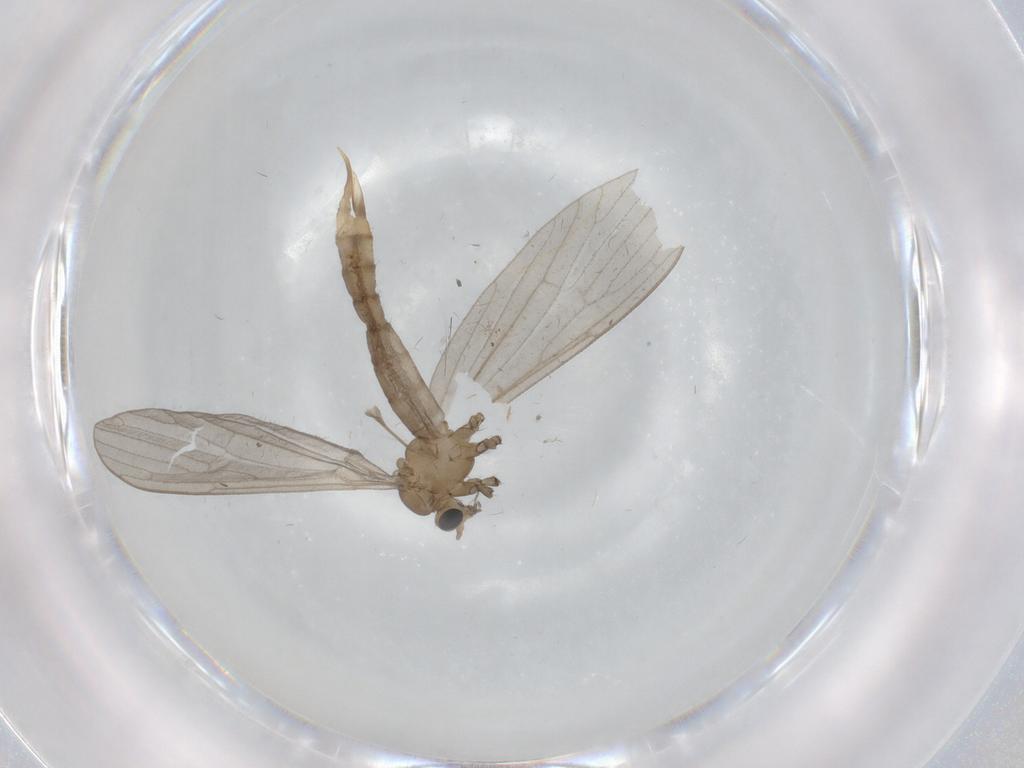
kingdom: Animalia
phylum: Arthropoda
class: Insecta
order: Diptera
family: Limoniidae
